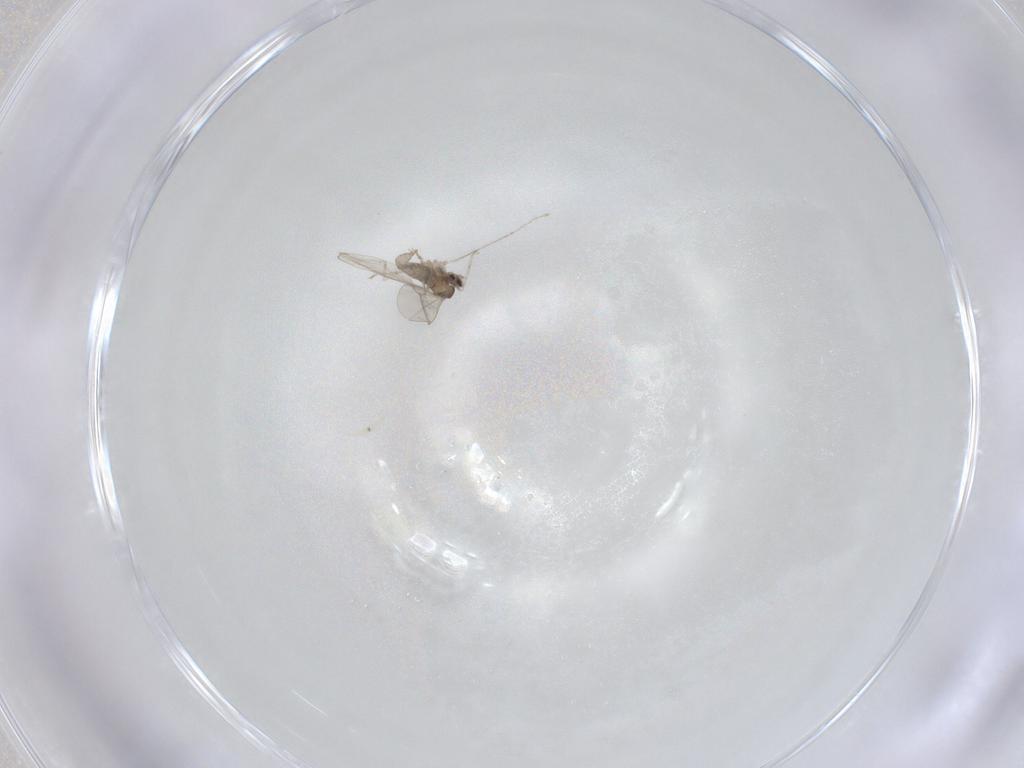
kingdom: Animalia
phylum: Arthropoda
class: Insecta
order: Diptera
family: Cecidomyiidae
